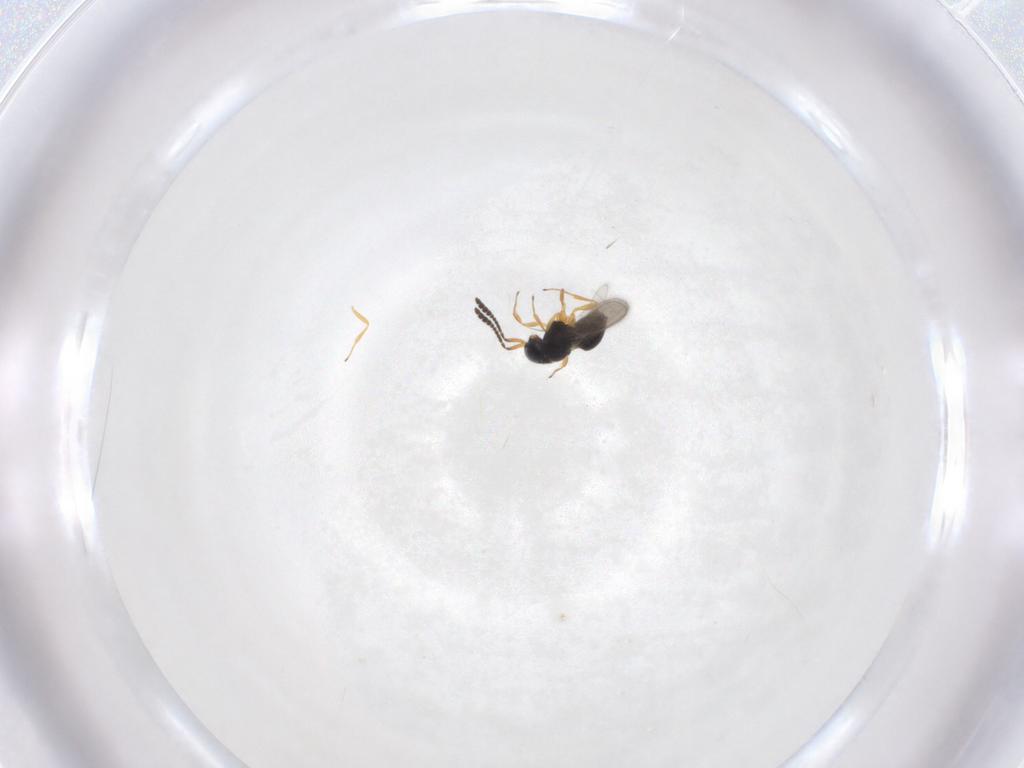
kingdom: Animalia
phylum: Arthropoda
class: Insecta
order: Hymenoptera
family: Scelionidae
